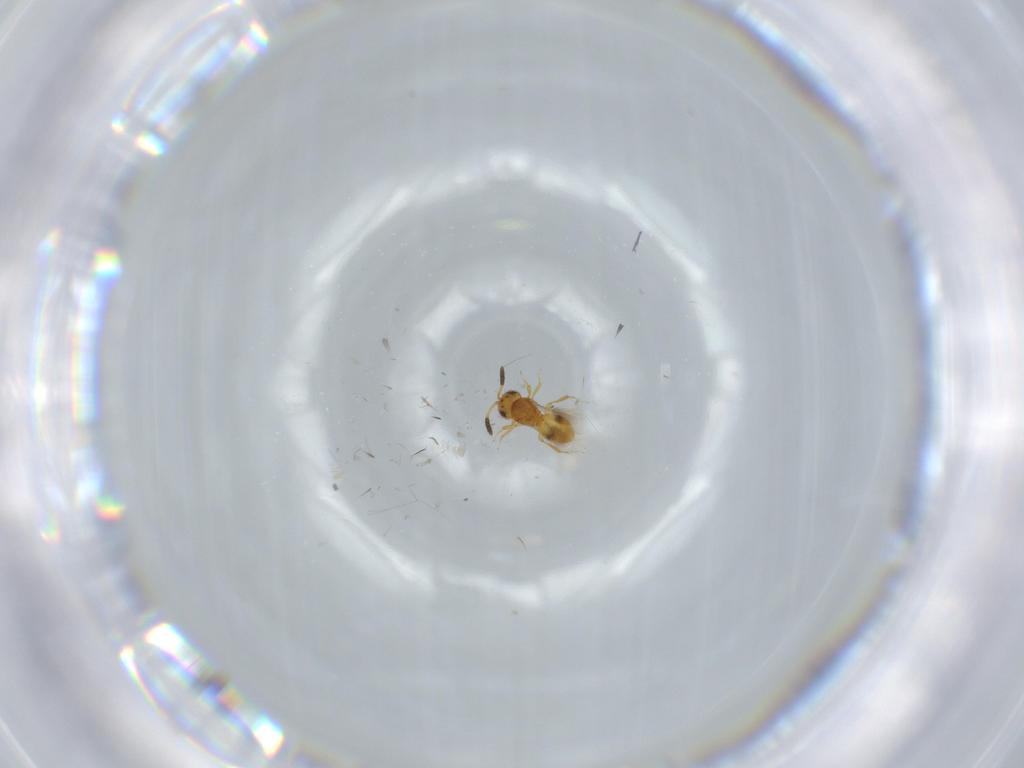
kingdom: Animalia
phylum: Arthropoda
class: Insecta
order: Hymenoptera
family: Scelionidae
